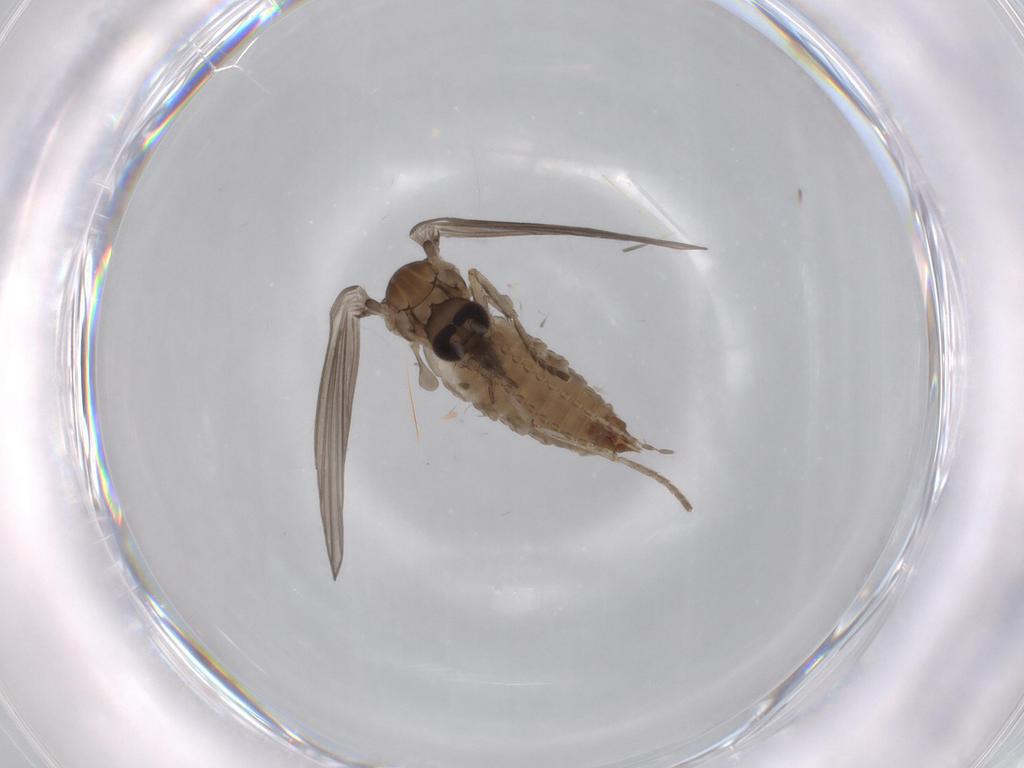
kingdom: Animalia
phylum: Arthropoda
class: Insecta
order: Diptera
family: Psychodidae
